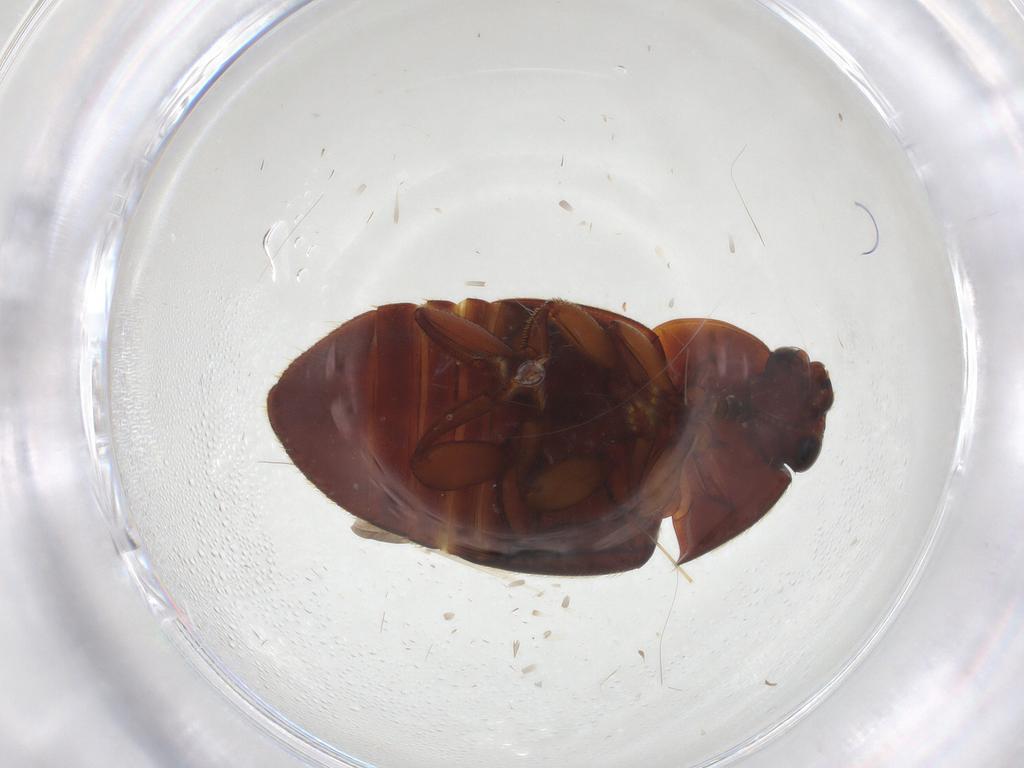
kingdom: Animalia
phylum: Arthropoda
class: Insecta
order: Coleoptera
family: Nitidulidae
